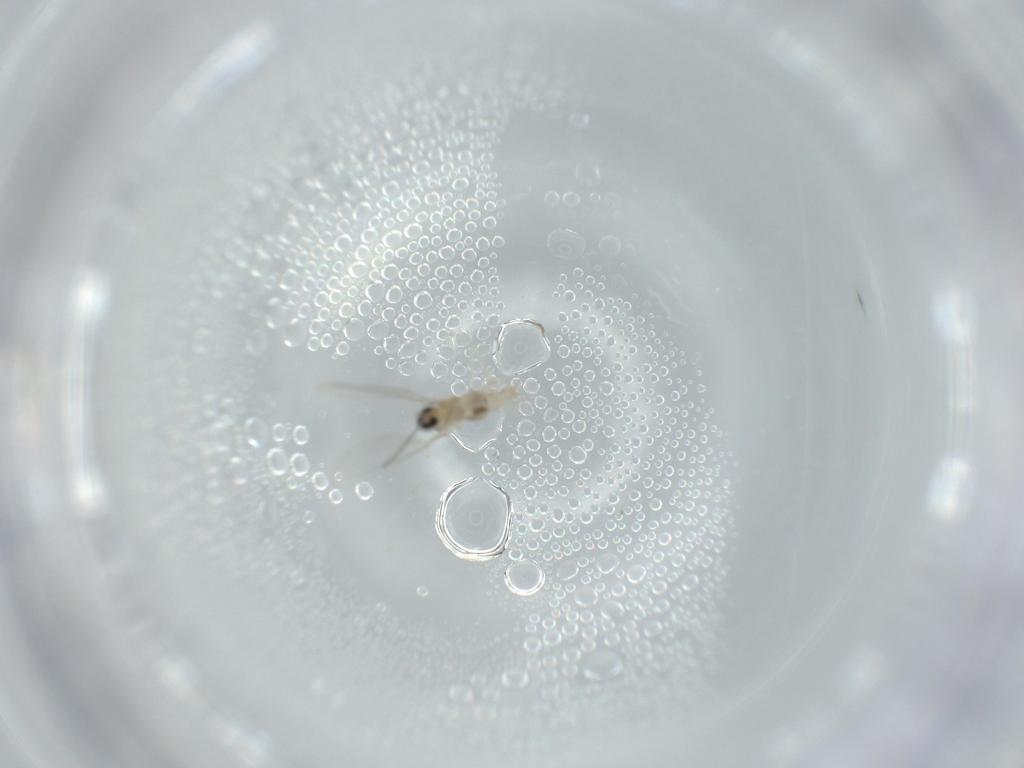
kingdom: Animalia
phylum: Arthropoda
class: Insecta
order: Diptera
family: Cecidomyiidae
